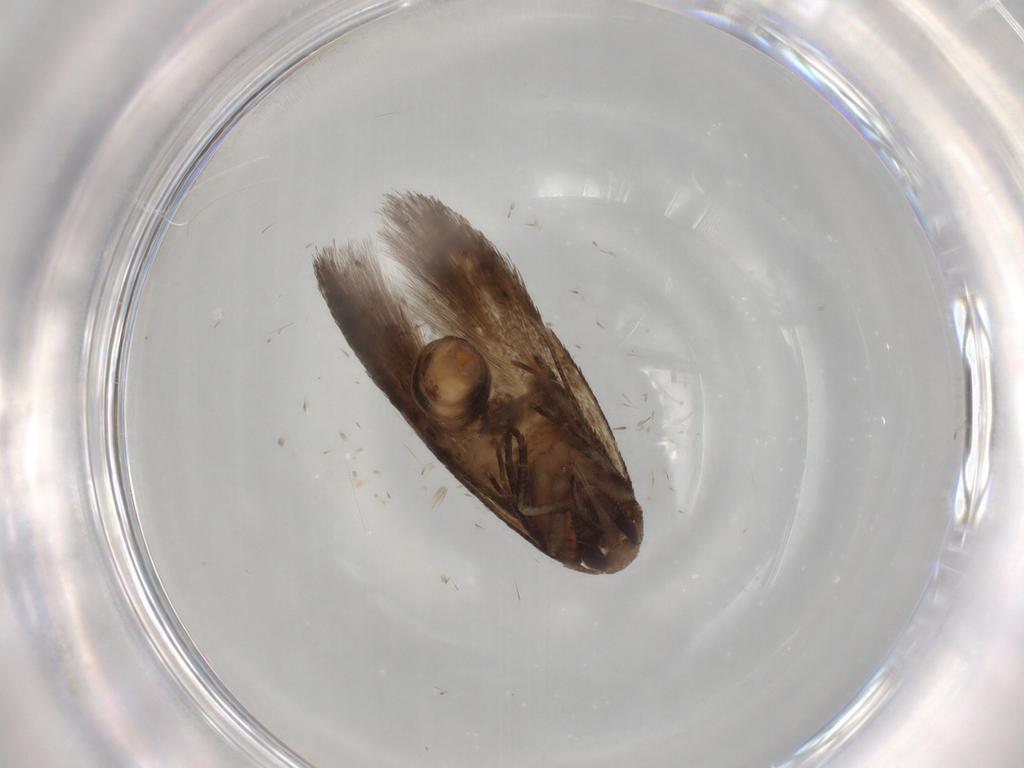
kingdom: Animalia
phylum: Arthropoda
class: Insecta
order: Lepidoptera
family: Cosmopterigidae
